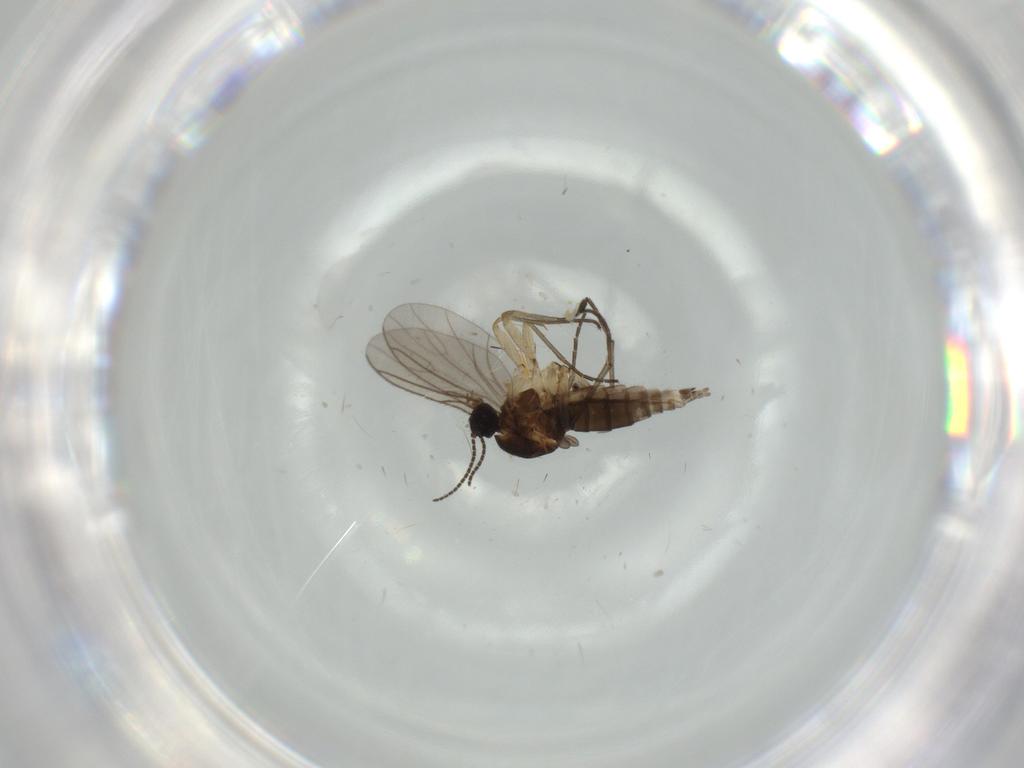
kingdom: Animalia
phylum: Arthropoda
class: Insecta
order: Diptera
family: Sciaridae
